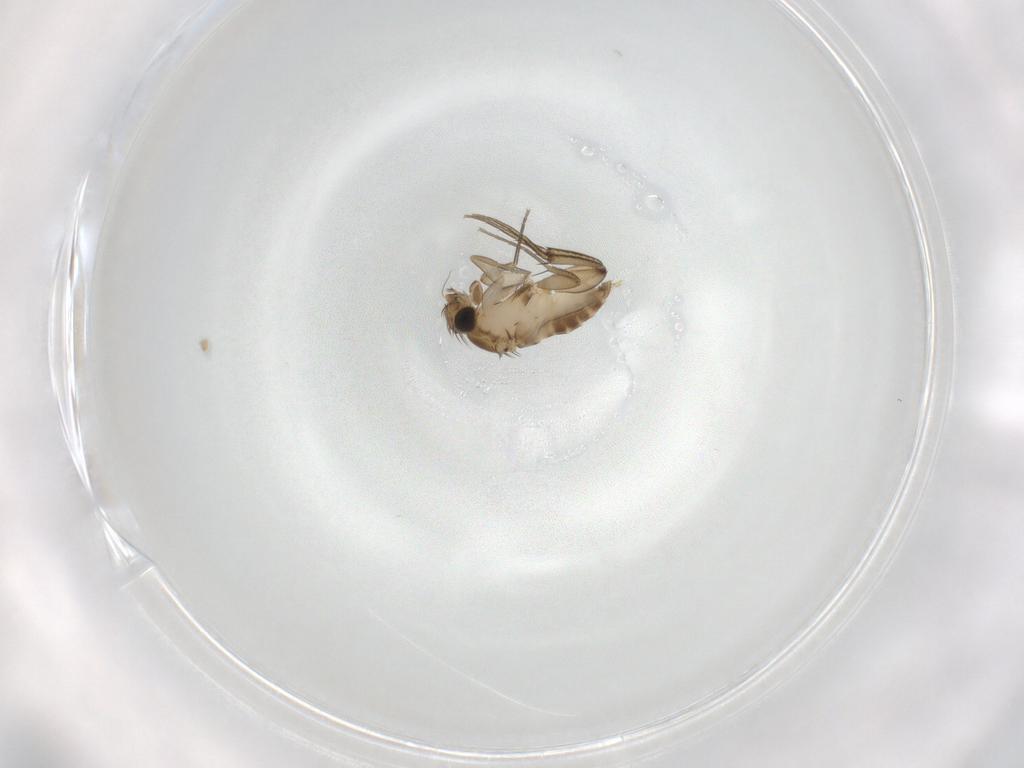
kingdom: Animalia
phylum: Arthropoda
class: Insecta
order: Diptera
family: Phoridae
